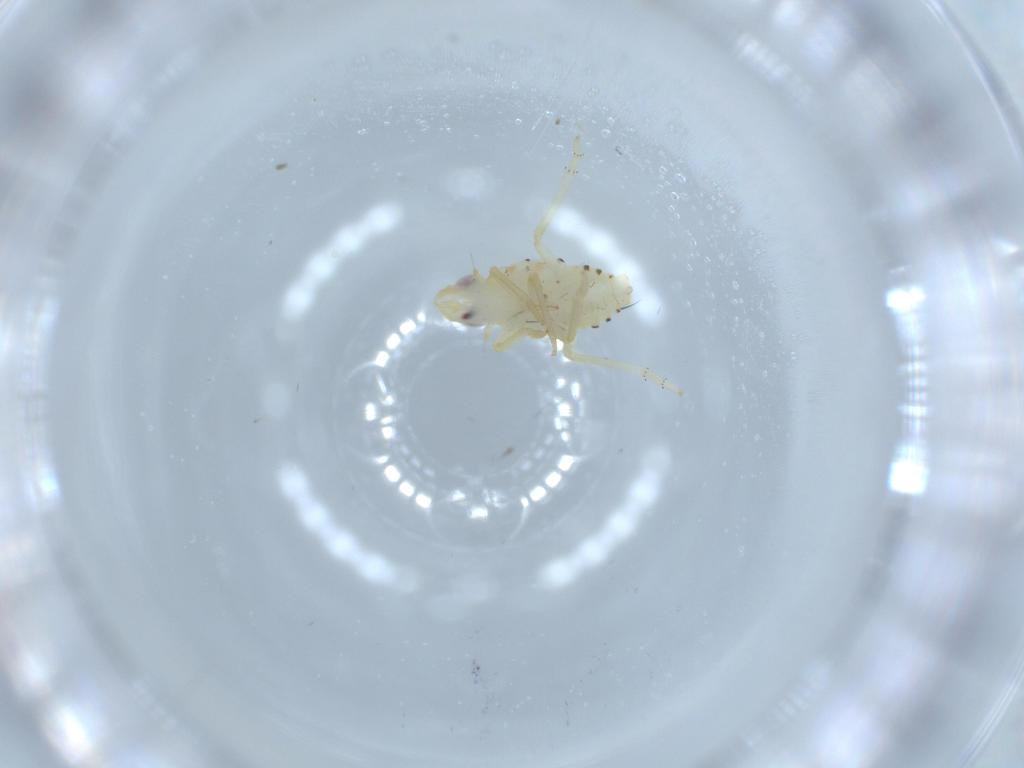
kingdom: Animalia
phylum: Arthropoda
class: Insecta
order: Hemiptera
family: Tropiduchidae
